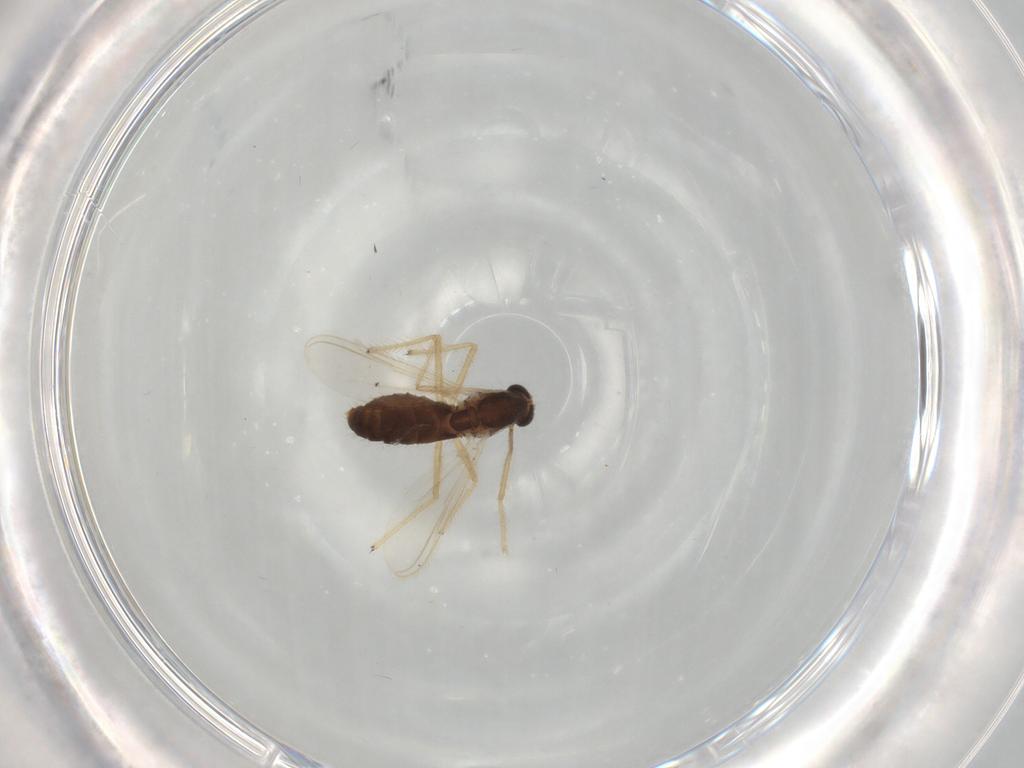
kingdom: Animalia
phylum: Arthropoda
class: Insecta
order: Diptera
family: Chironomidae
